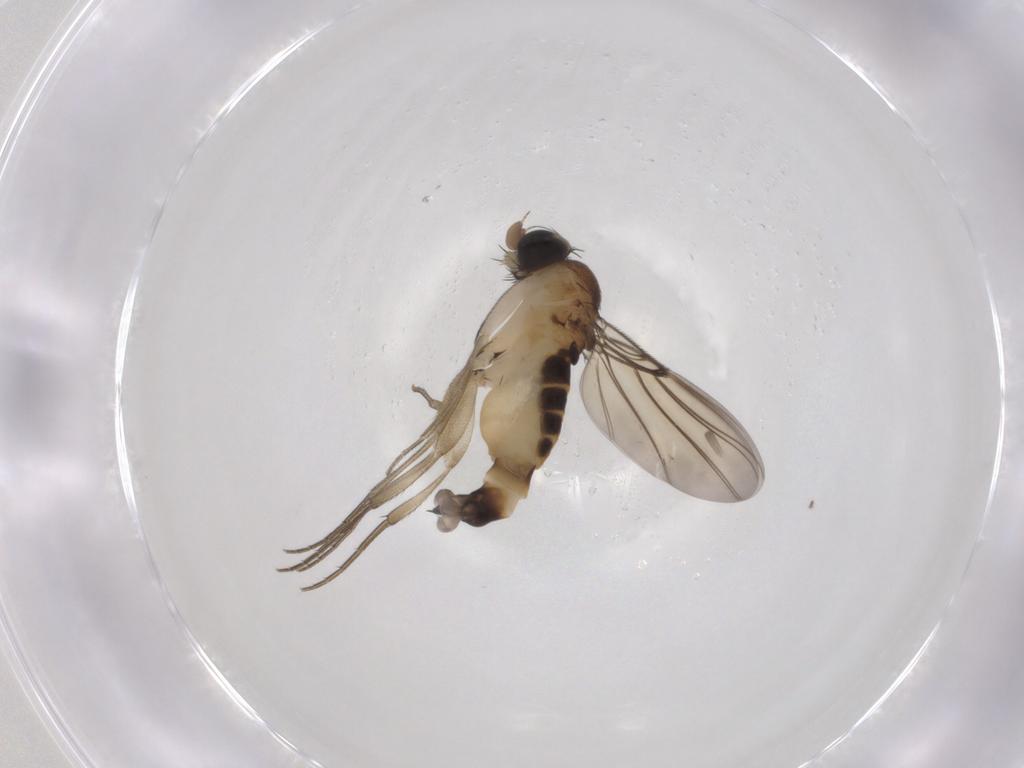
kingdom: Animalia
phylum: Arthropoda
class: Insecta
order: Diptera
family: Phoridae
